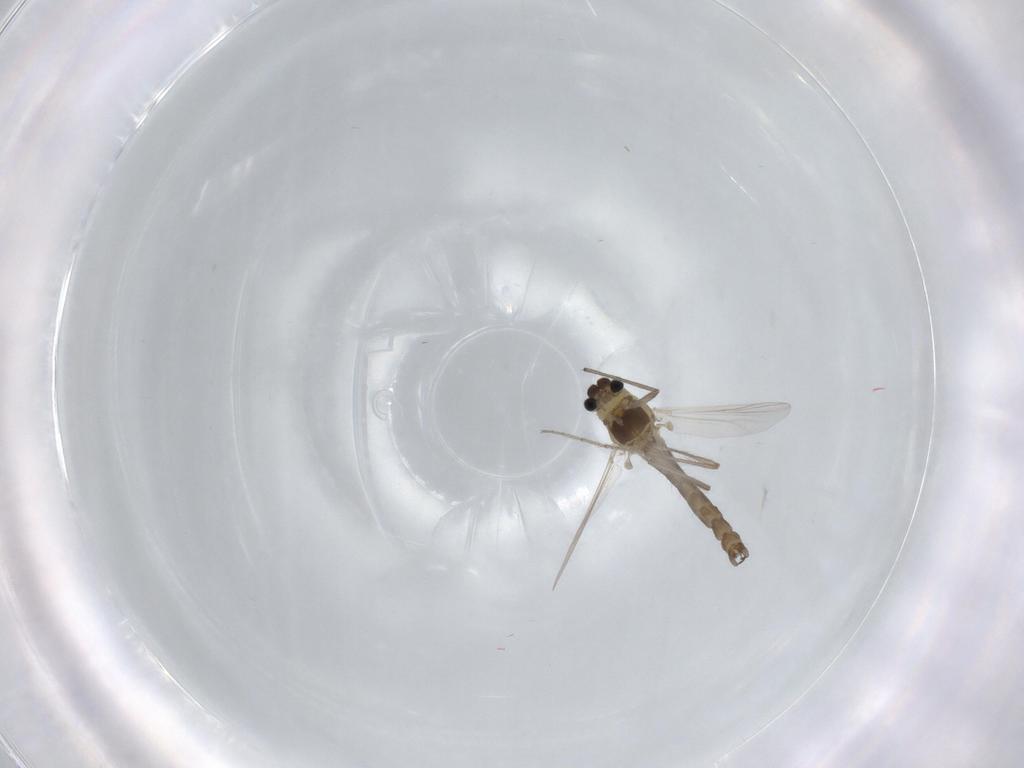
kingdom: Animalia
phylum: Arthropoda
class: Insecta
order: Diptera
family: Chironomidae
